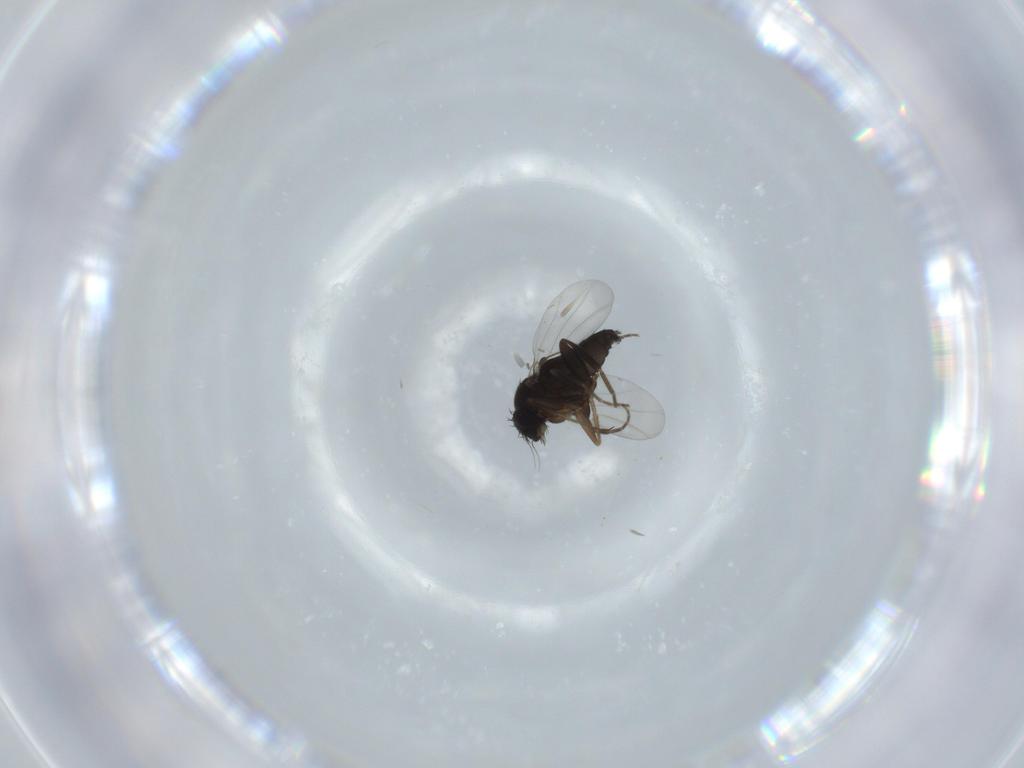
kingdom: Animalia
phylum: Arthropoda
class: Insecta
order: Diptera
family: Phoridae
